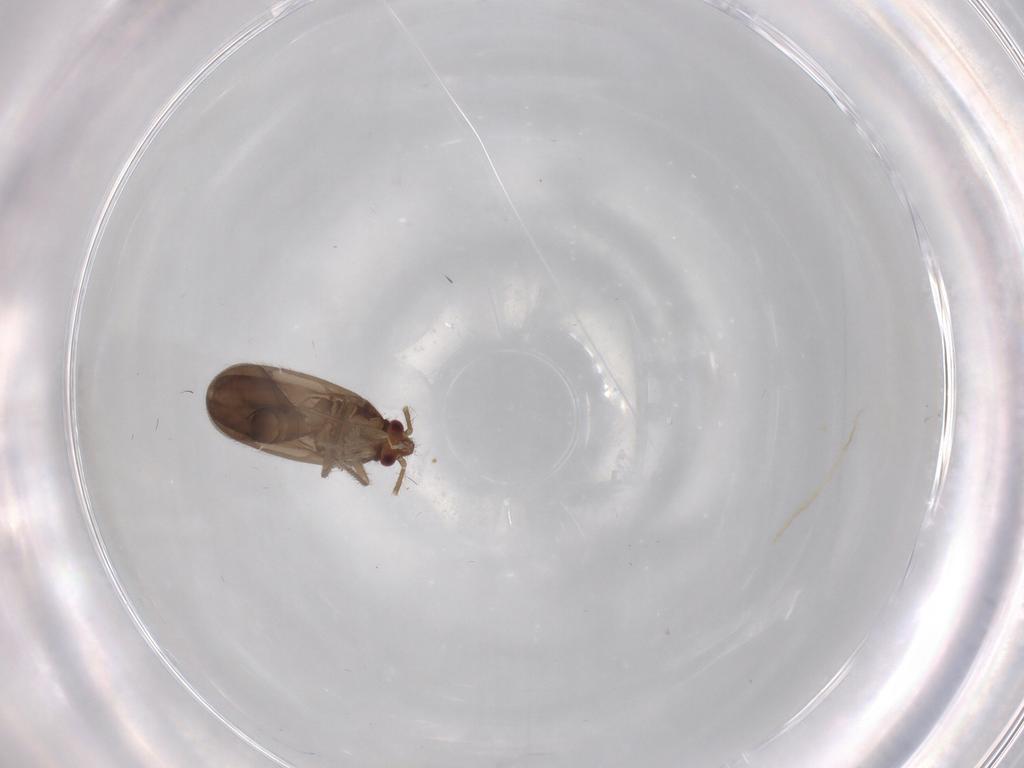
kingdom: Animalia
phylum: Arthropoda
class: Insecta
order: Hemiptera
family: Ceratocombidae
